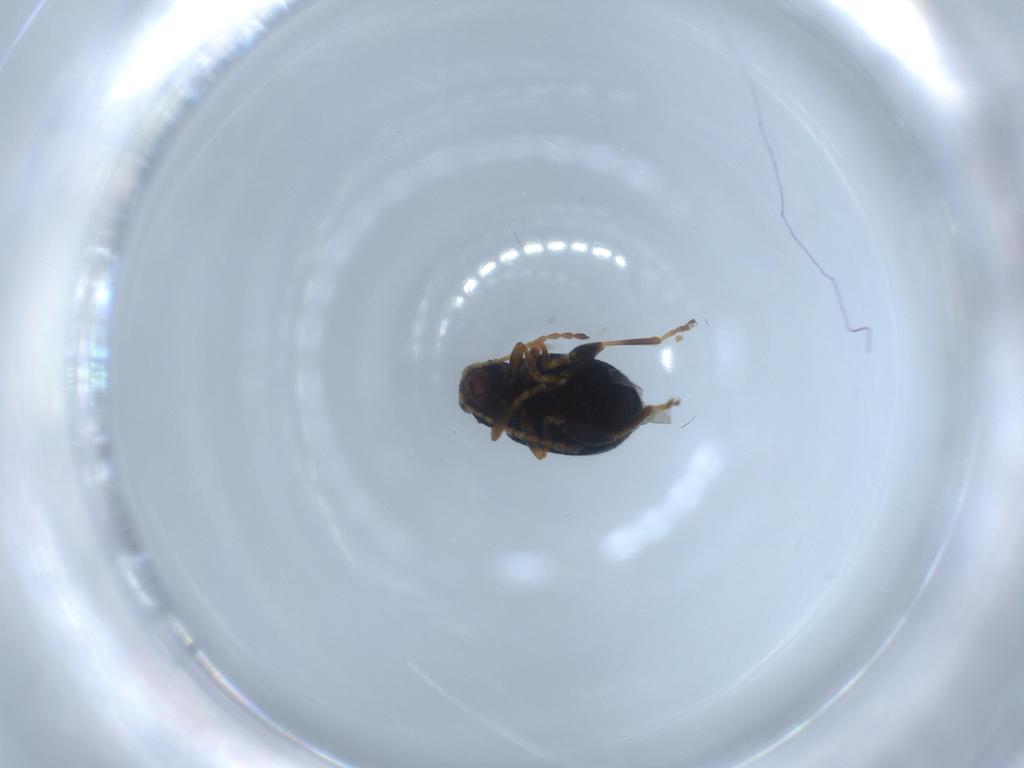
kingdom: Animalia
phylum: Arthropoda
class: Insecta
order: Coleoptera
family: Chrysomelidae
